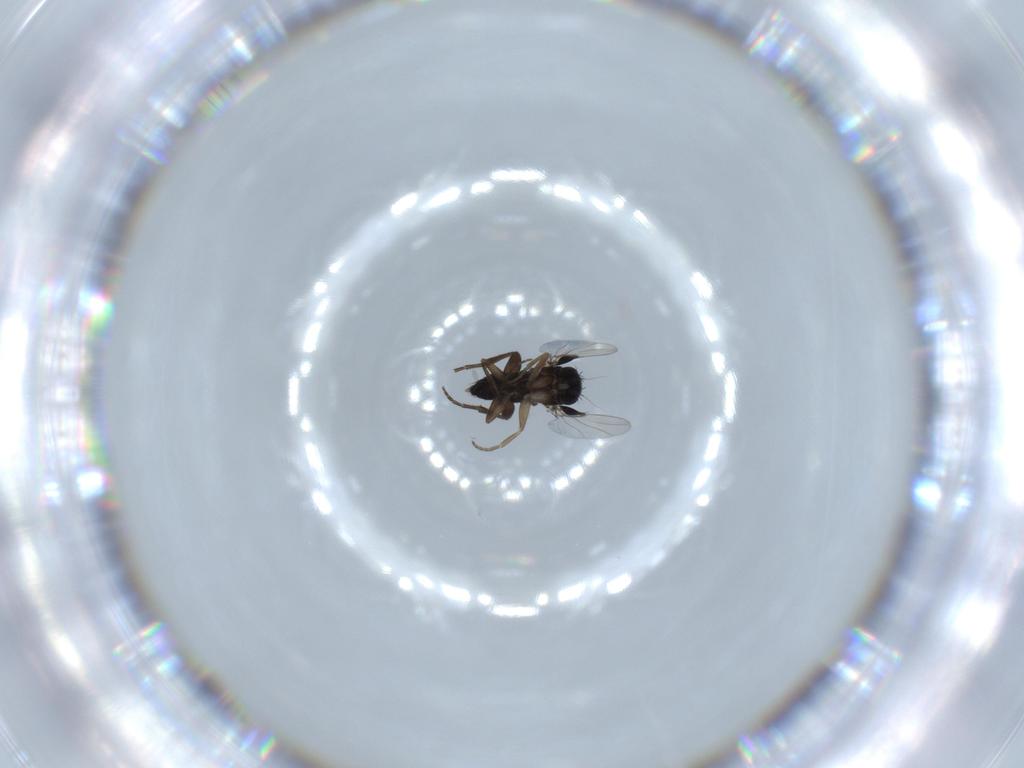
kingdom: Animalia
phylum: Arthropoda
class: Insecta
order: Diptera
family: Phoridae
